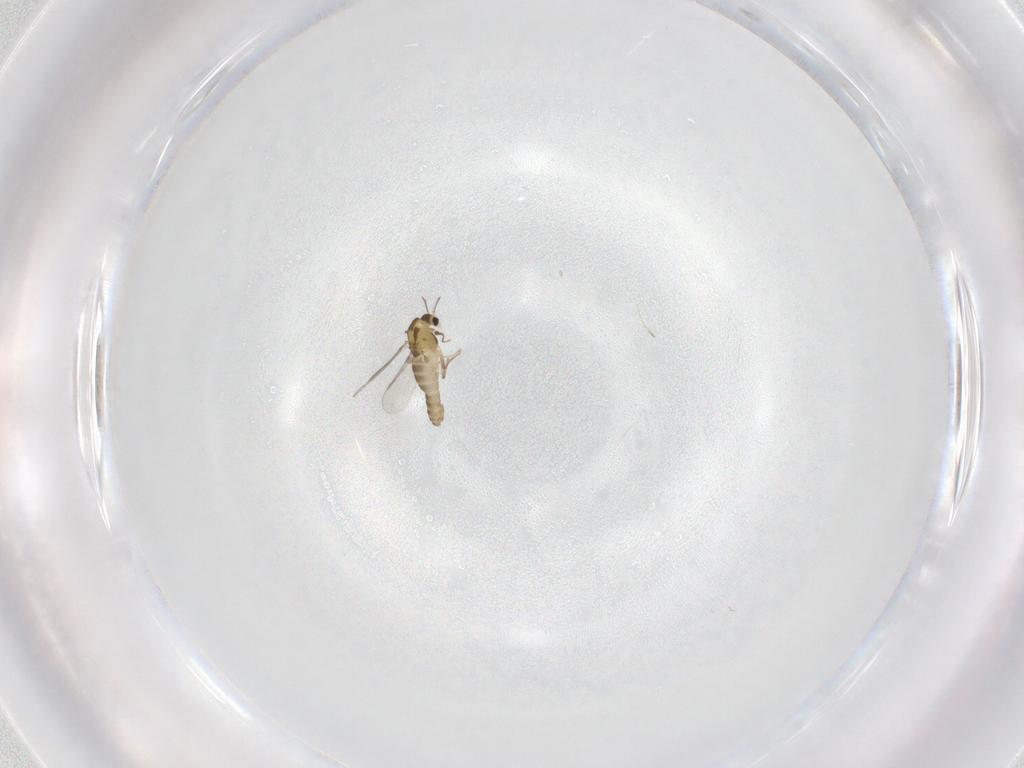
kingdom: Animalia
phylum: Arthropoda
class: Insecta
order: Diptera
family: Chironomidae
